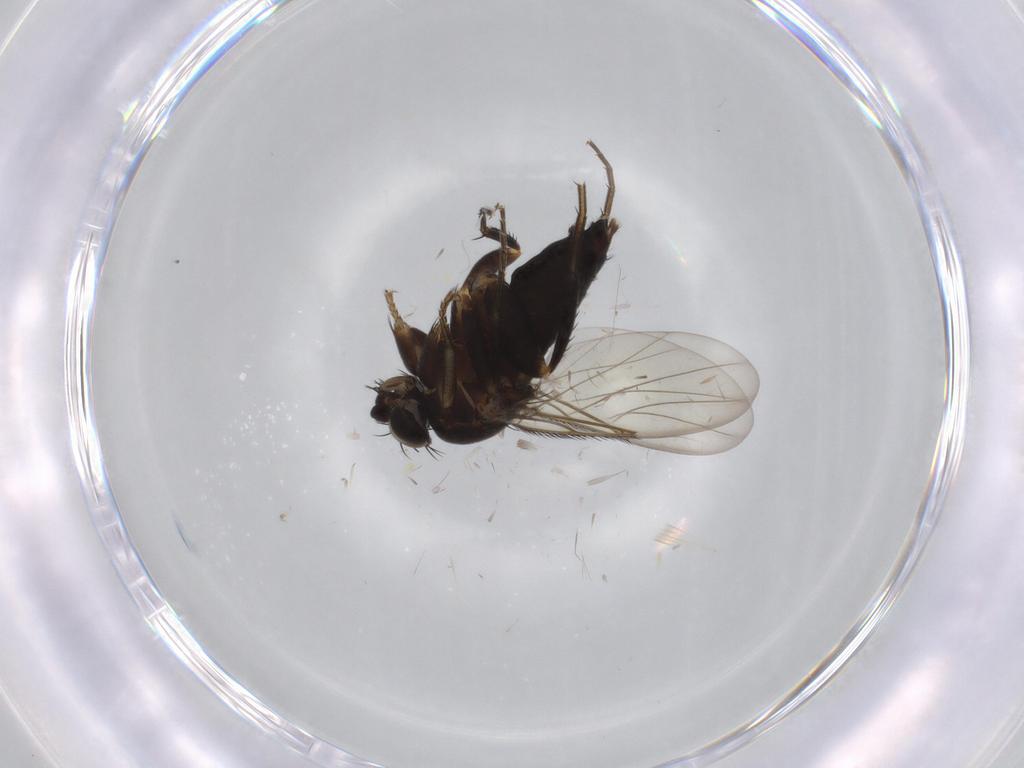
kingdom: Animalia
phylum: Arthropoda
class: Insecta
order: Diptera
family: Phoridae
